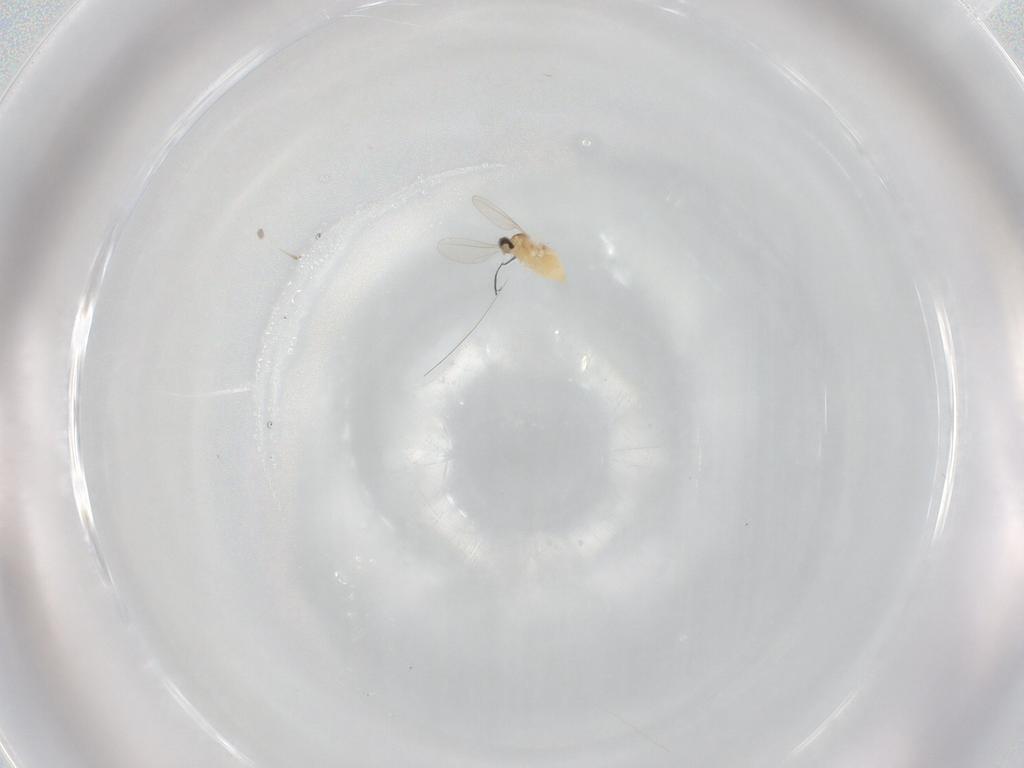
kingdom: Animalia
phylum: Arthropoda
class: Insecta
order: Diptera
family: Cecidomyiidae
